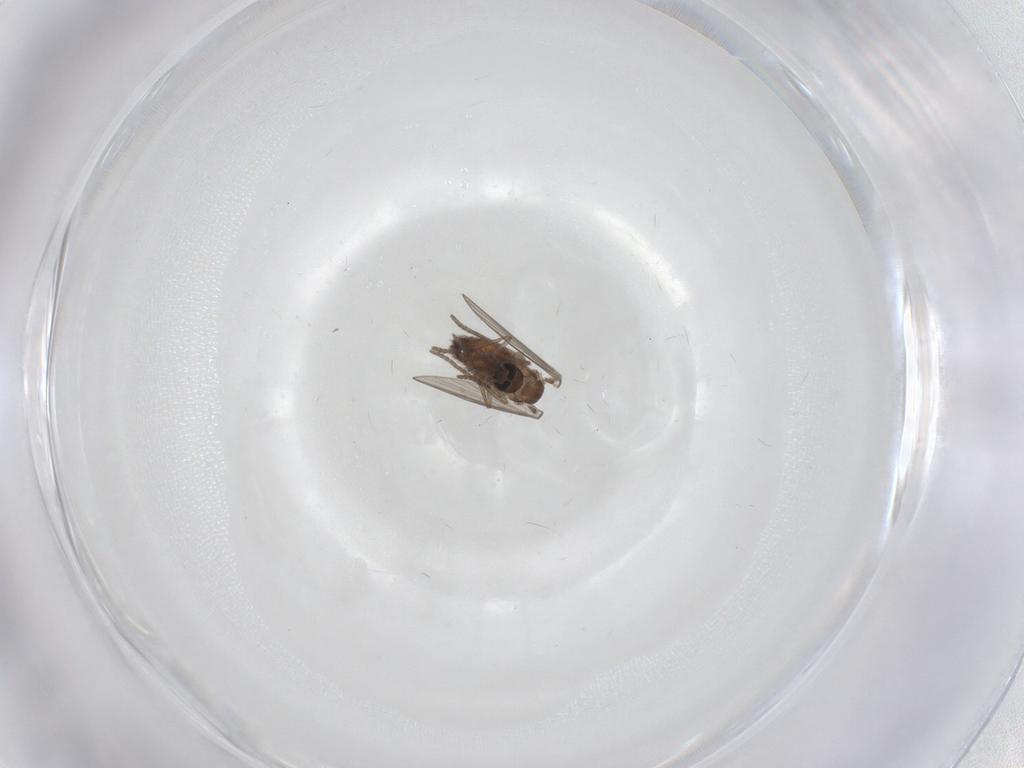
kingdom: Animalia
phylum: Arthropoda
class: Insecta
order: Diptera
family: Psychodidae
